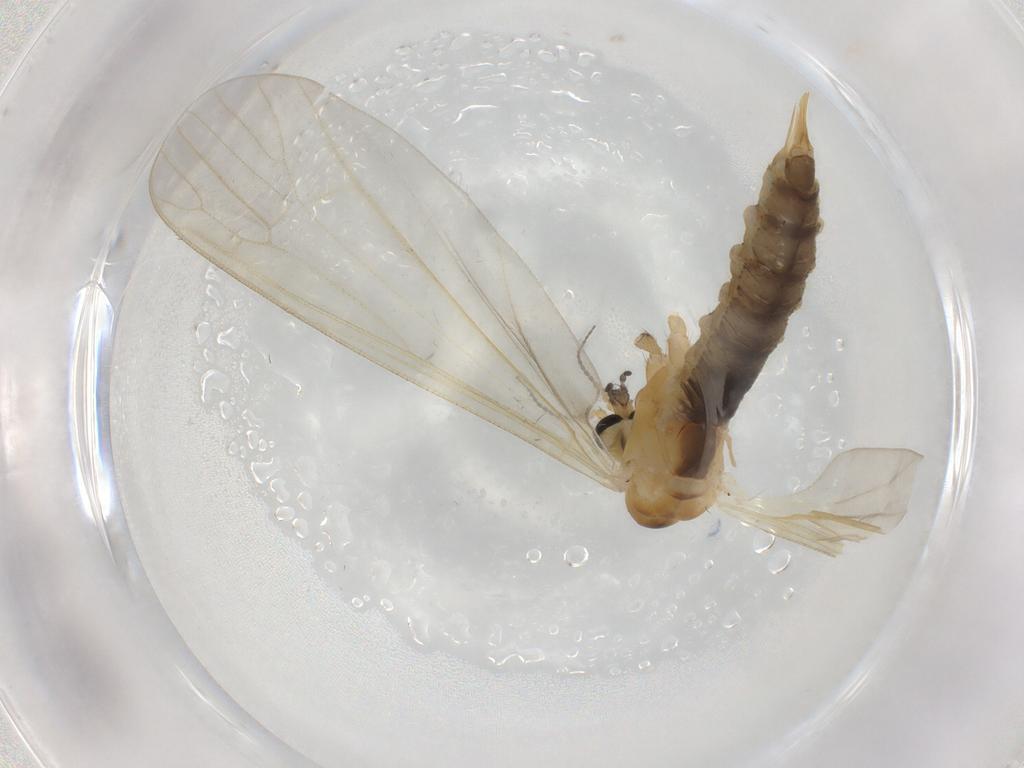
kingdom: Animalia
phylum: Arthropoda
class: Insecta
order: Diptera
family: Limoniidae
